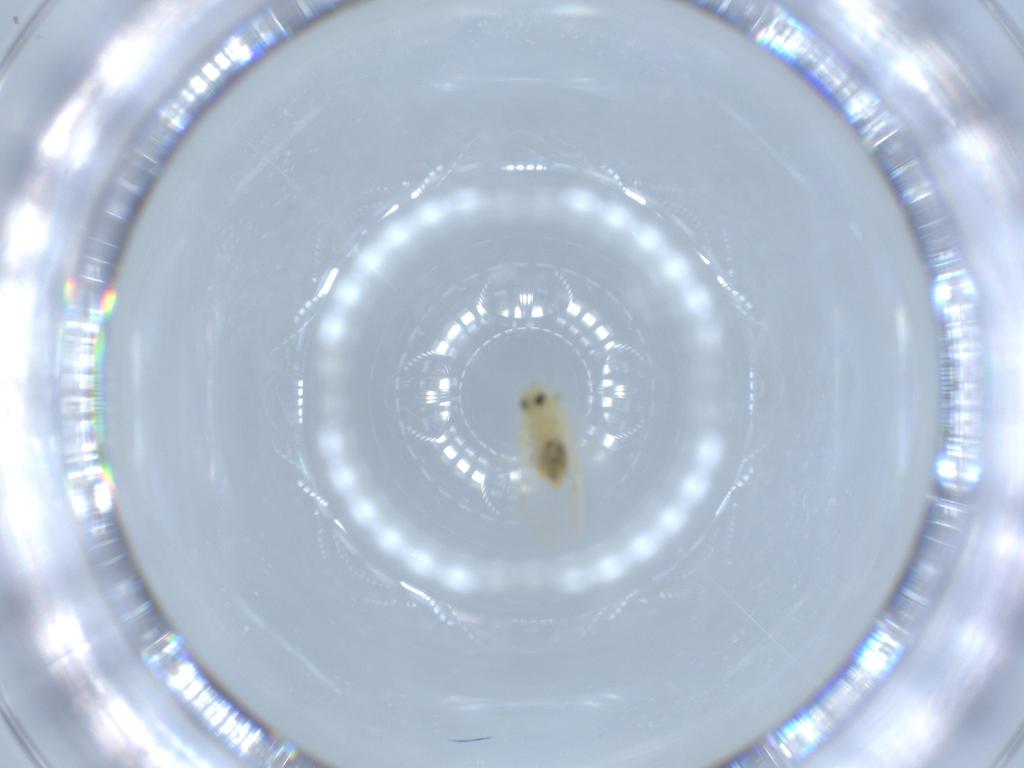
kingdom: Animalia
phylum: Arthropoda
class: Insecta
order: Hemiptera
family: Aleyrodidae
